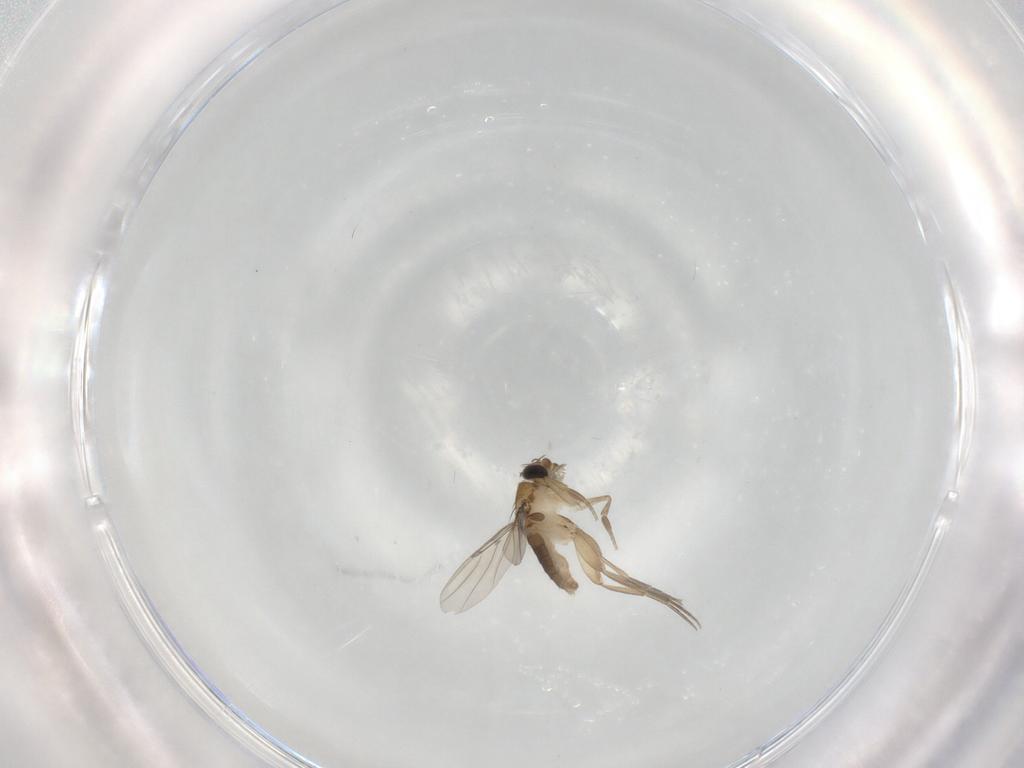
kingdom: Animalia
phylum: Arthropoda
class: Insecta
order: Diptera
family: Phoridae
